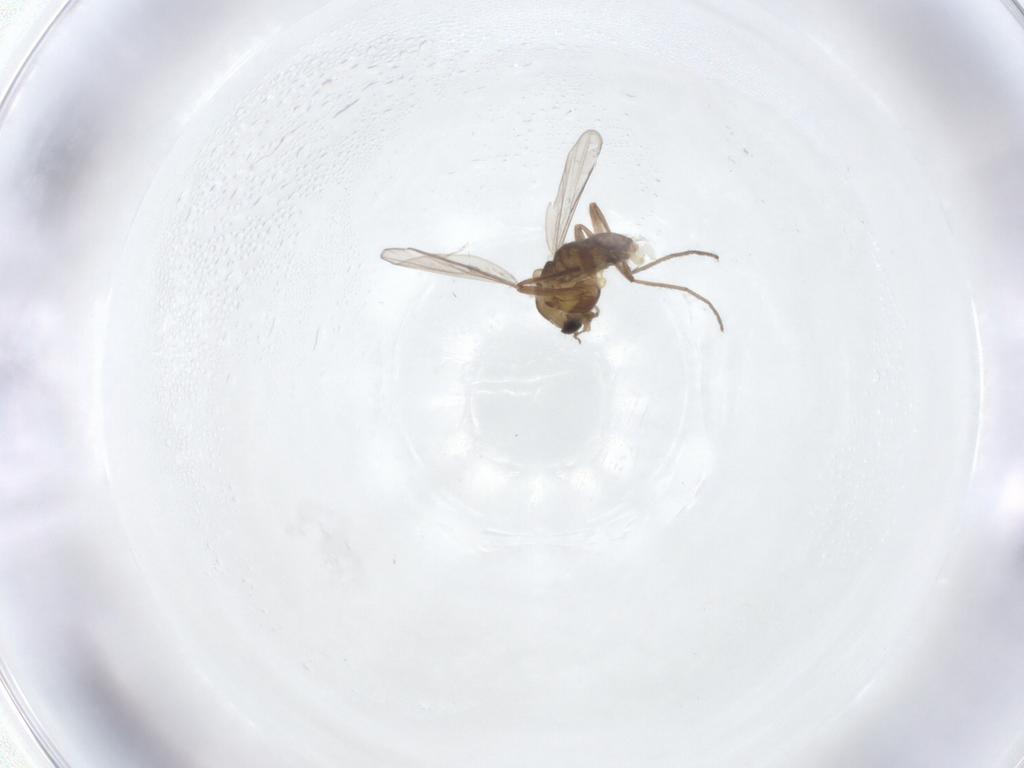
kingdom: Animalia
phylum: Arthropoda
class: Insecta
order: Diptera
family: Chironomidae
